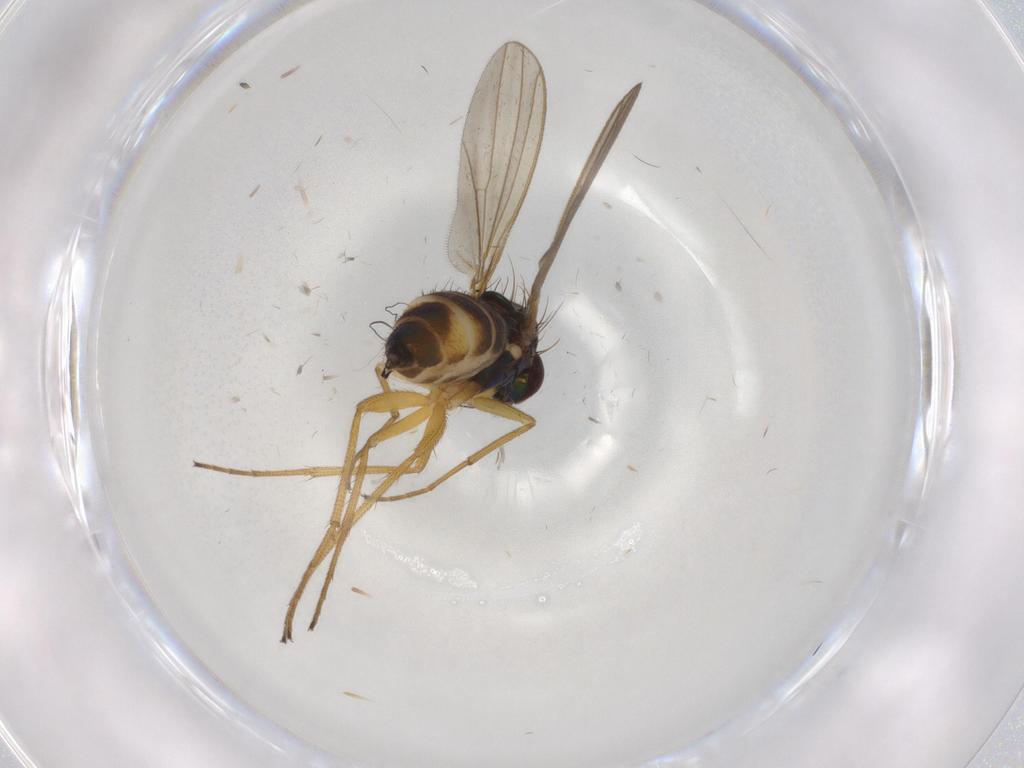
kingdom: Animalia
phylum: Arthropoda
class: Insecta
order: Diptera
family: Dolichopodidae
